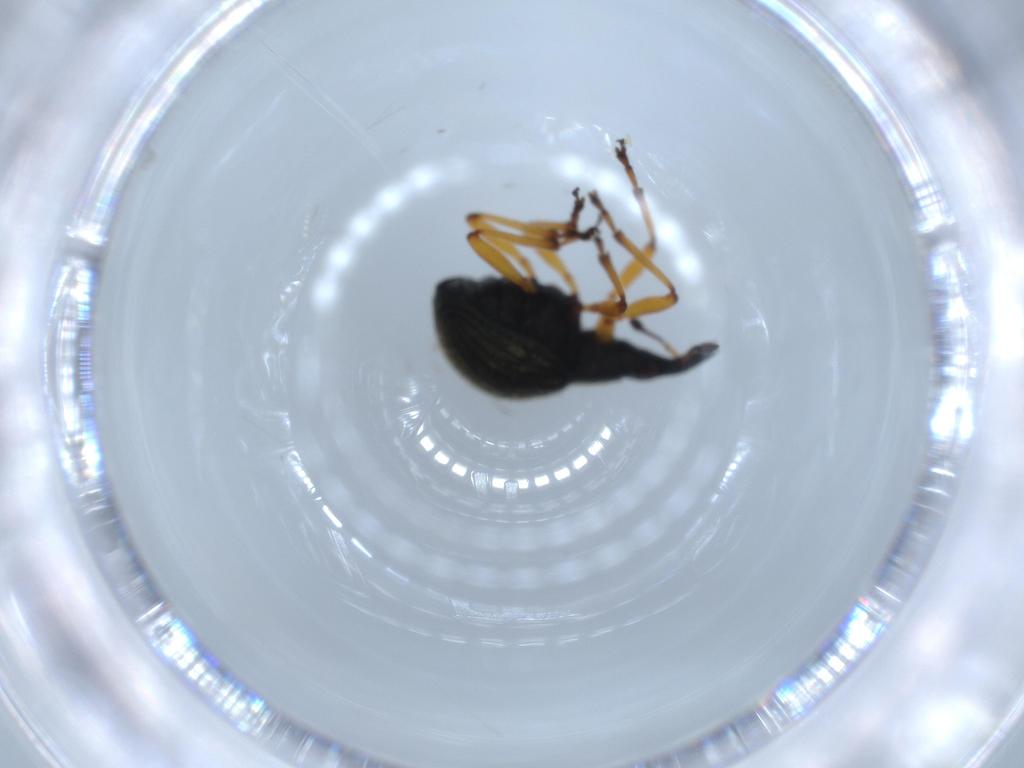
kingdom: Animalia
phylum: Arthropoda
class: Insecta
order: Coleoptera
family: Brentidae
